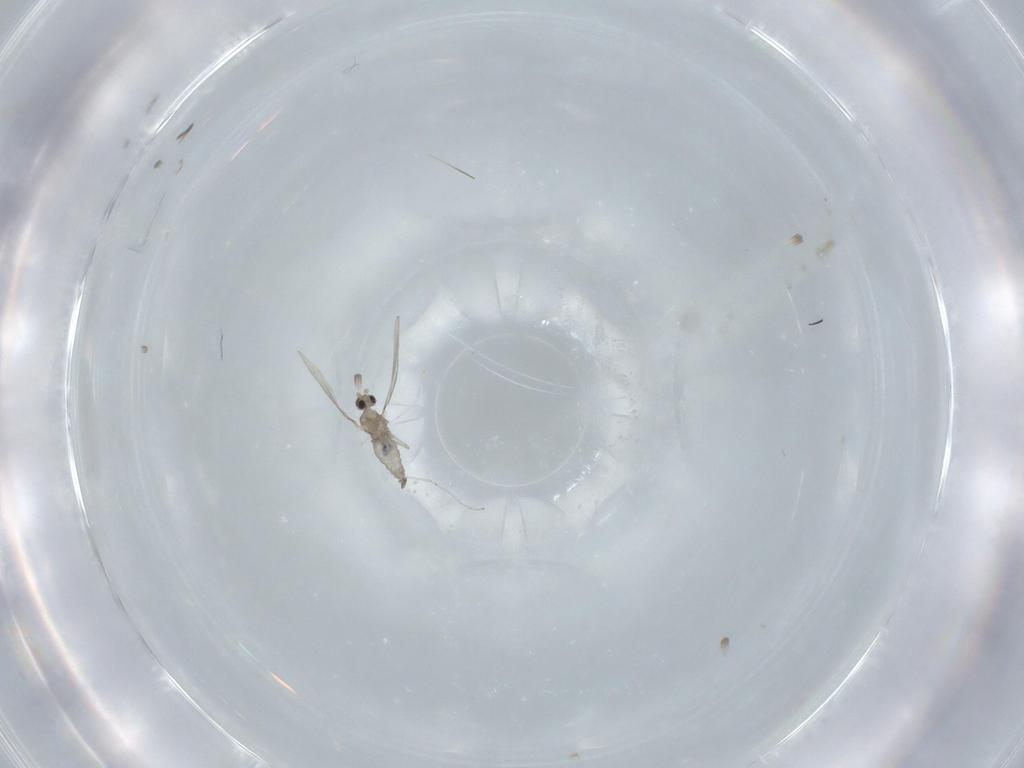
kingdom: Animalia
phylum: Arthropoda
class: Insecta
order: Diptera
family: Cecidomyiidae
